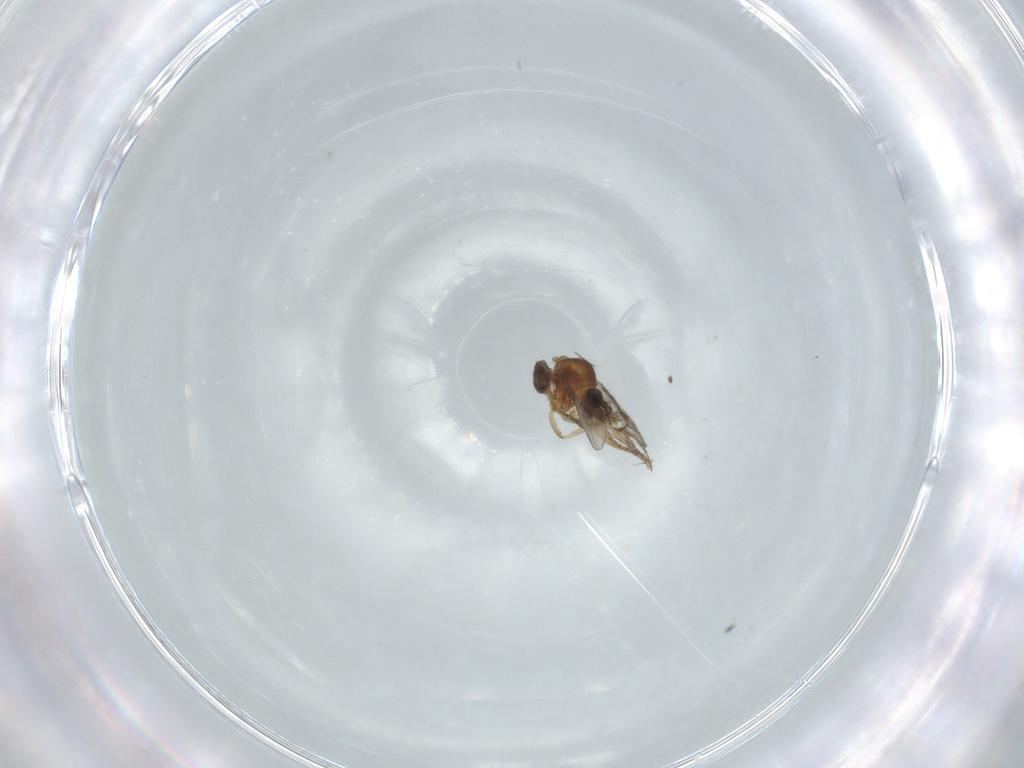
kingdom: Animalia
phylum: Arthropoda
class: Insecta
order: Diptera
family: Cecidomyiidae
